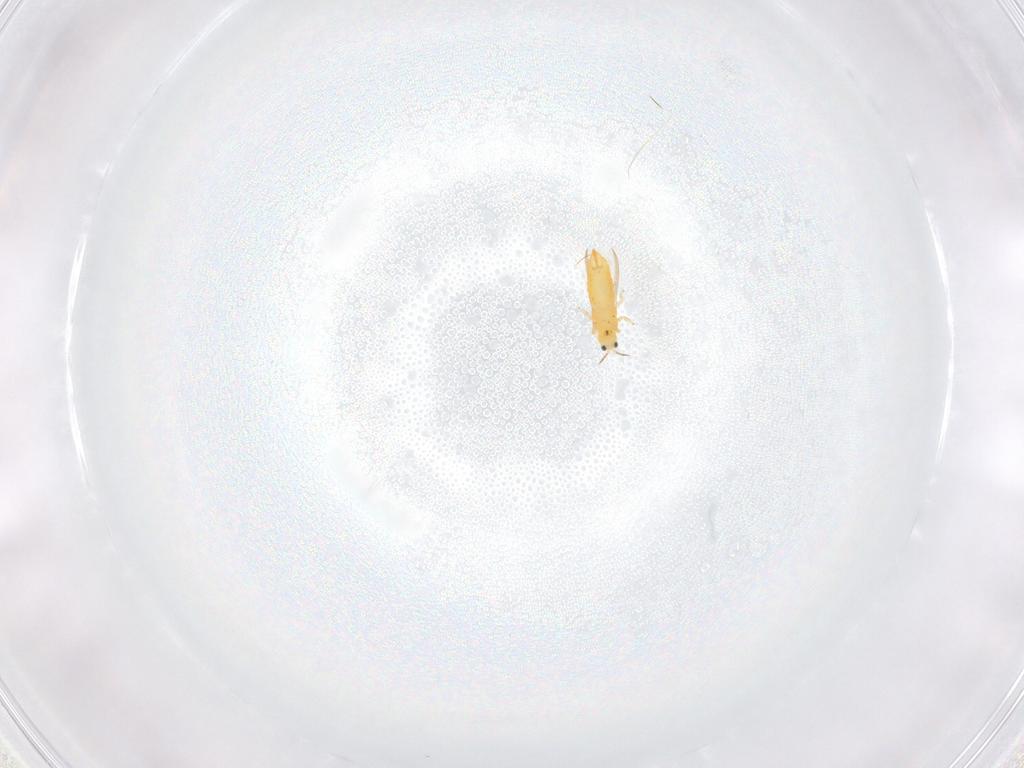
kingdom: Animalia
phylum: Arthropoda
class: Insecta
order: Thysanoptera
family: Thripidae
